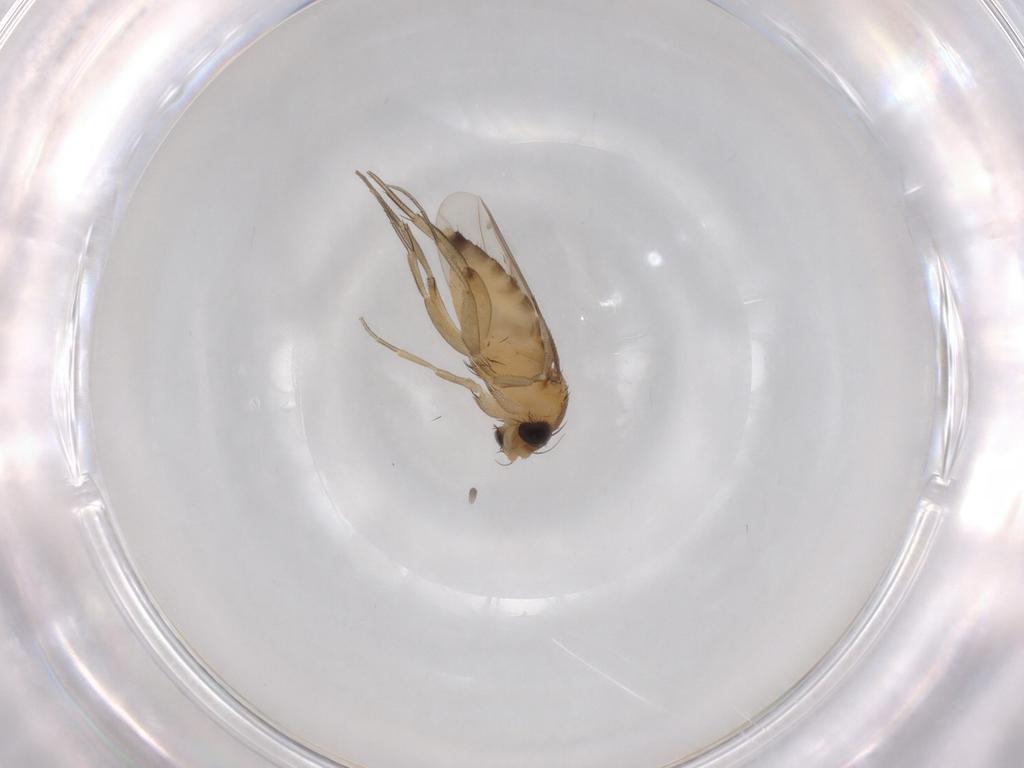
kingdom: Animalia
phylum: Arthropoda
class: Insecta
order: Diptera
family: Phoridae
